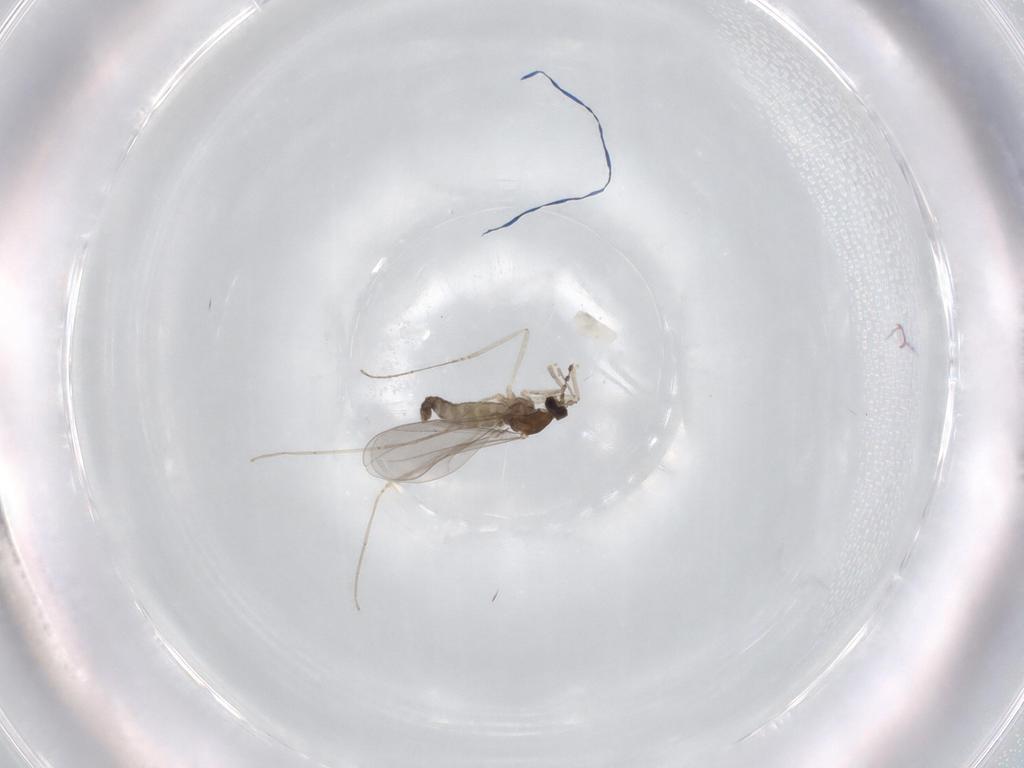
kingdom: Animalia
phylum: Arthropoda
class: Insecta
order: Diptera
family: Cecidomyiidae
